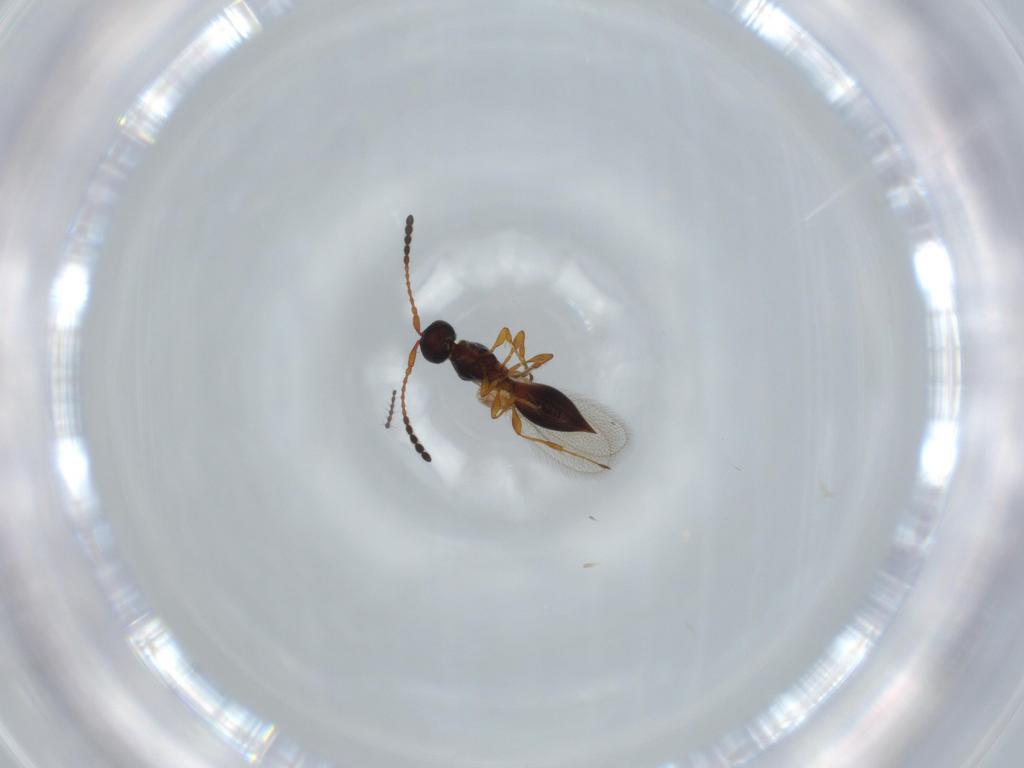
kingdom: Animalia
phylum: Arthropoda
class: Insecta
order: Hymenoptera
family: Diapriidae
